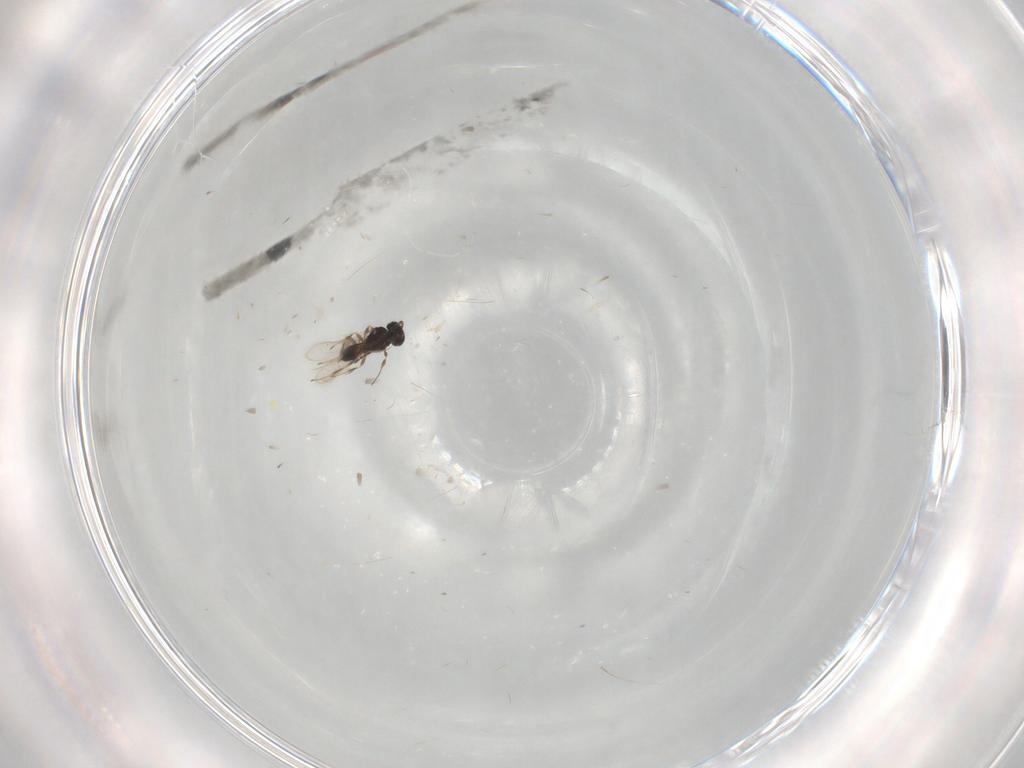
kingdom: Animalia
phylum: Arthropoda
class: Insecta
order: Hymenoptera
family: Scelionidae
